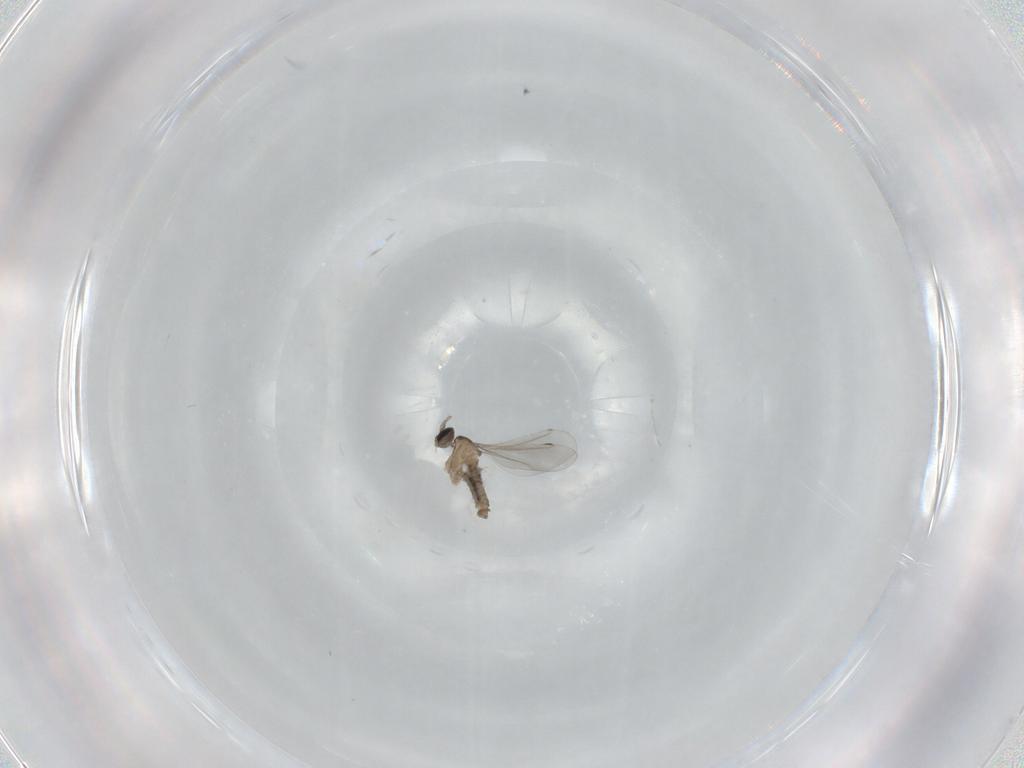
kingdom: Animalia
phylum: Arthropoda
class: Insecta
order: Diptera
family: Cecidomyiidae
